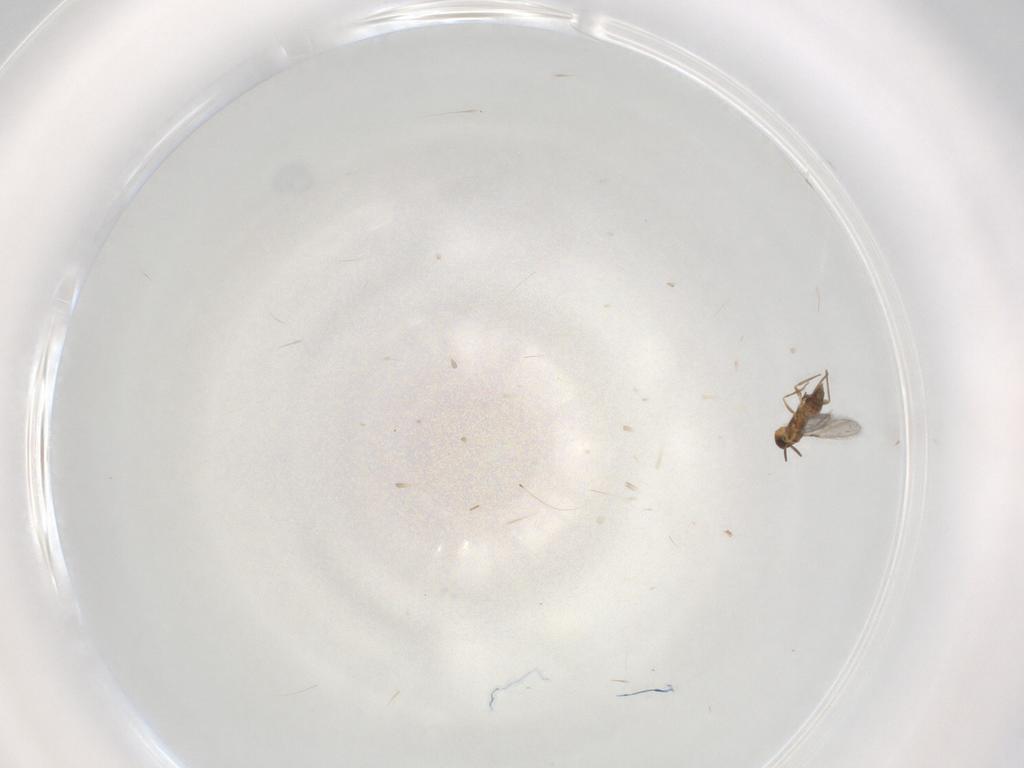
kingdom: Animalia
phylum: Arthropoda
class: Insecta
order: Hymenoptera
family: Mymaridae
